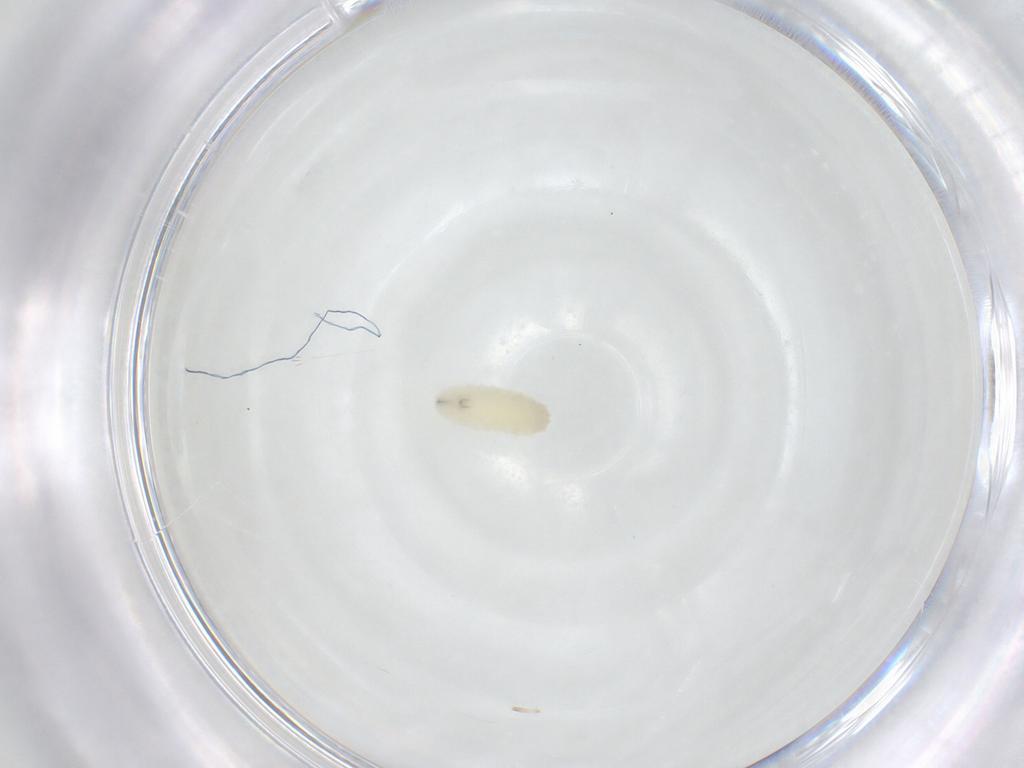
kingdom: Animalia
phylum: Arthropoda
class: Insecta
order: Diptera
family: Anthomyiidae
